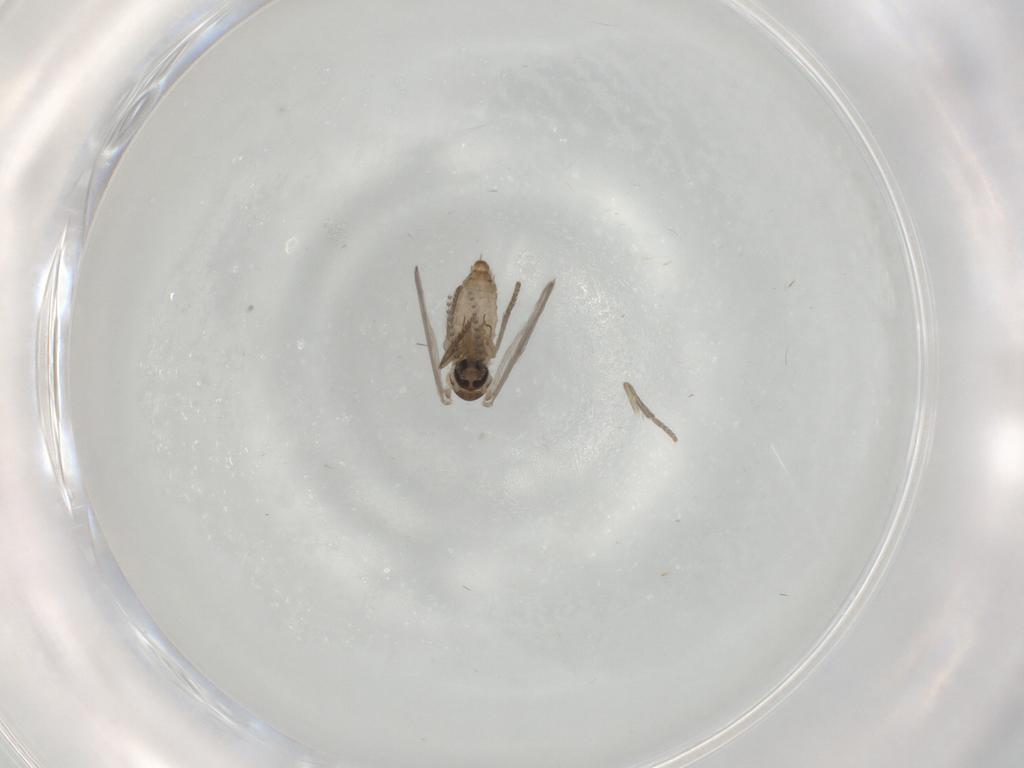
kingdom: Animalia
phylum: Arthropoda
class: Insecta
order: Diptera
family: Psychodidae
